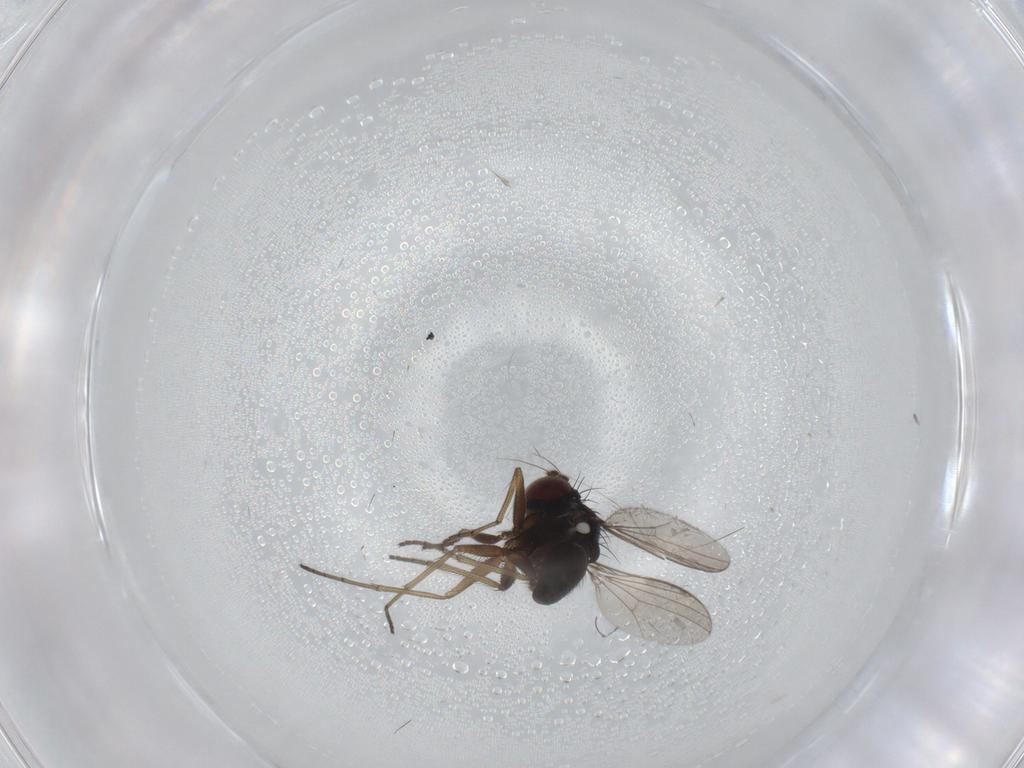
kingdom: Animalia
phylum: Arthropoda
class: Insecta
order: Diptera
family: Dolichopodidae
